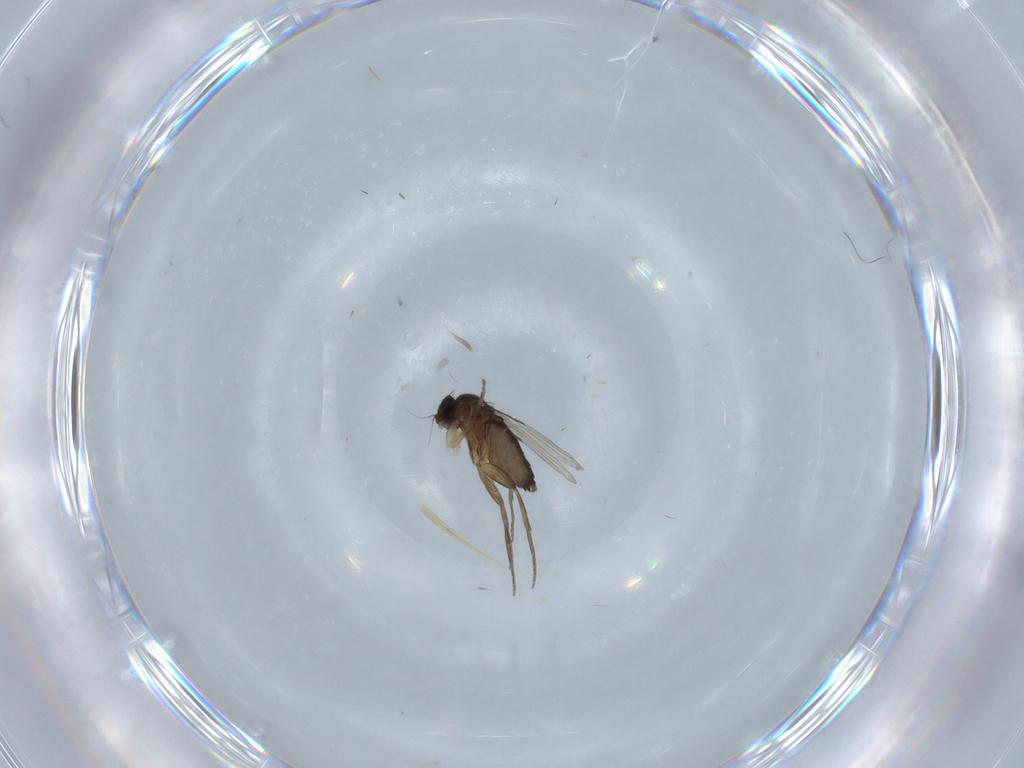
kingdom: Animalia
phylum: Arthropoda
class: Insecta
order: Diptera
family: Phoridae
